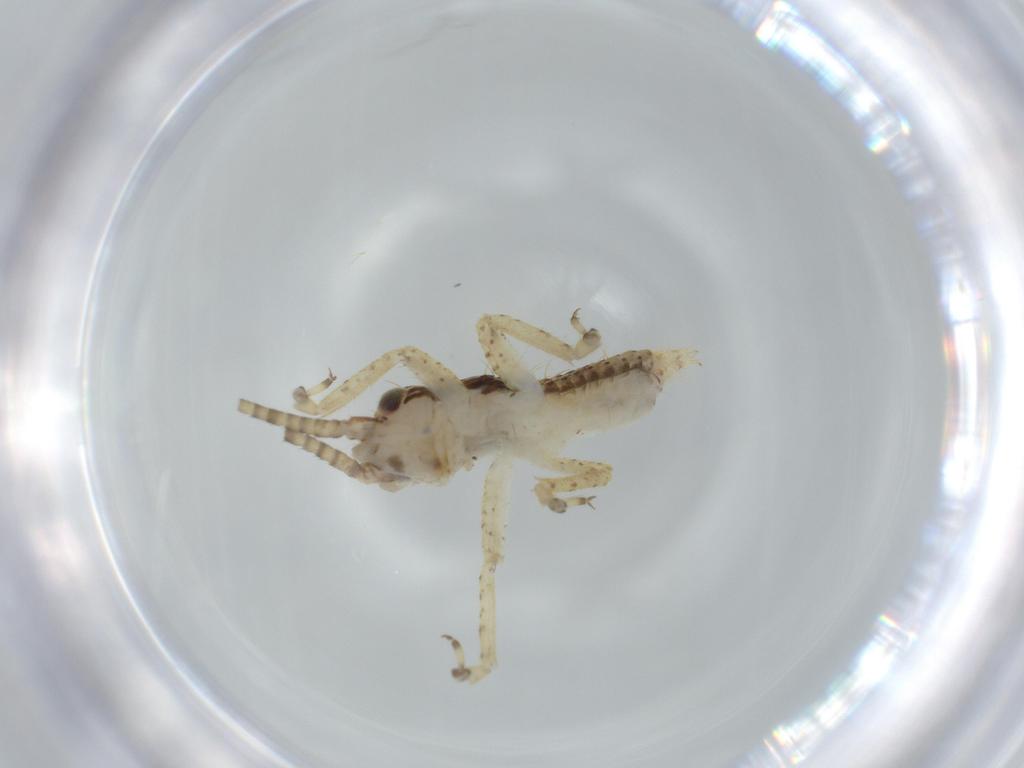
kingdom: Animalia
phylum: Arthropoda
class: Insecta
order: Orthoptera
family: Gryllidae
